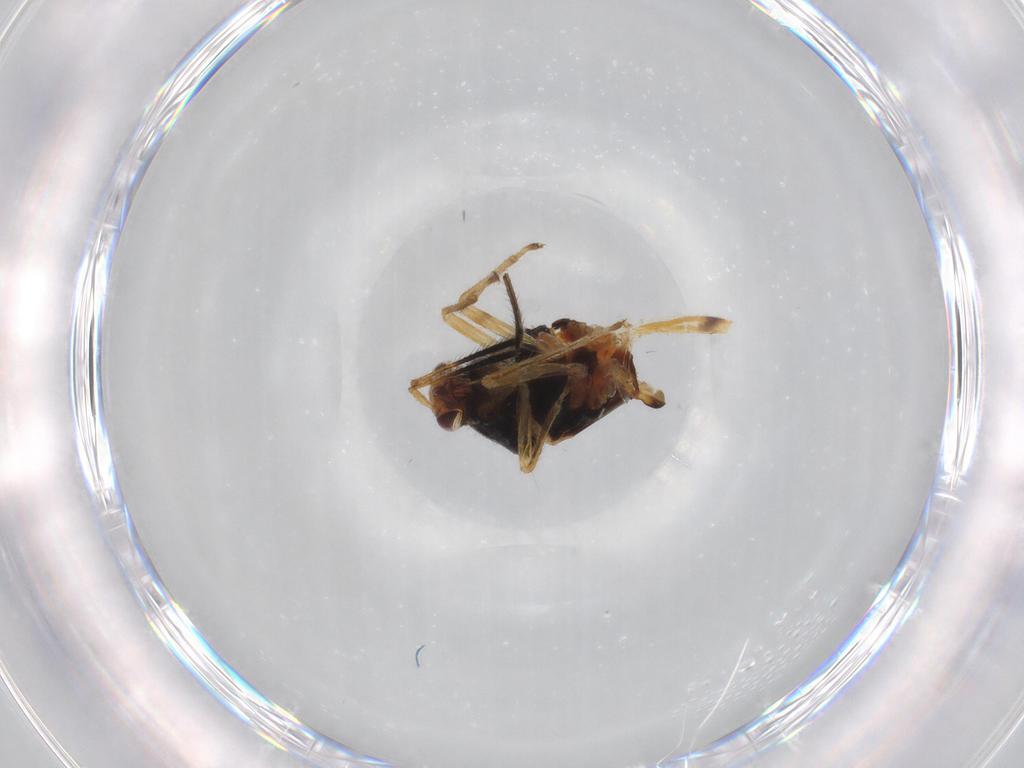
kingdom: Animalia
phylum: Arthropoda
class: Insecta
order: Hemiptera
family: Miridae
